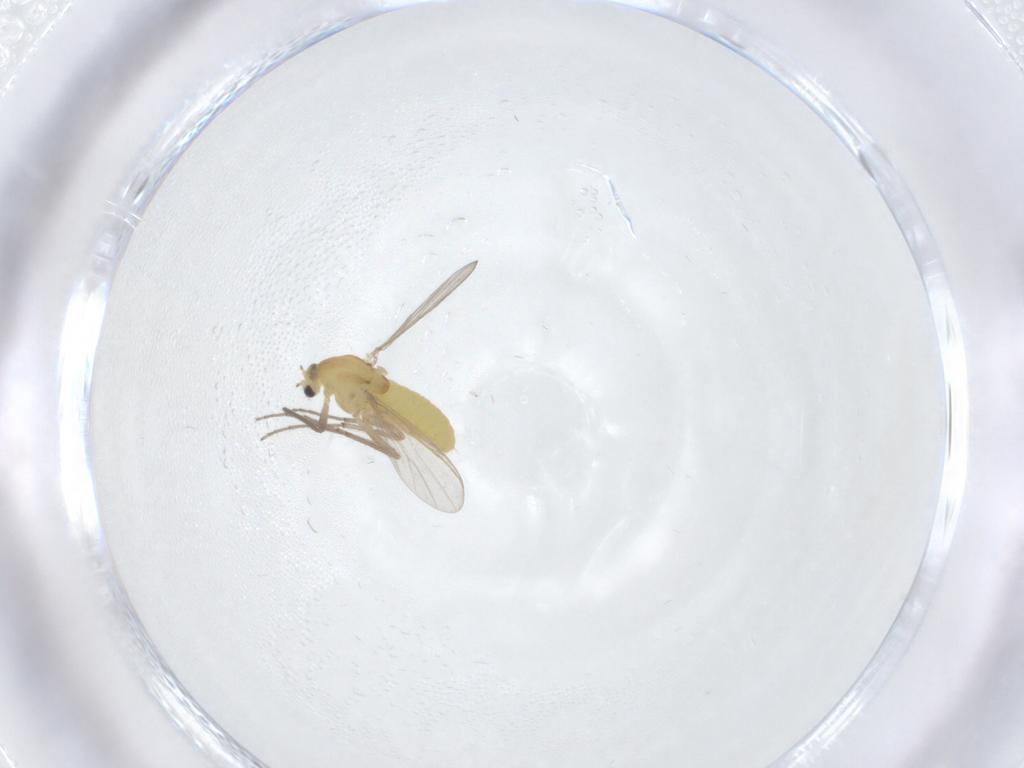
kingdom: Animalia
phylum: Arthropoda
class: Insecta
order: Diptera
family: Chironomidae
